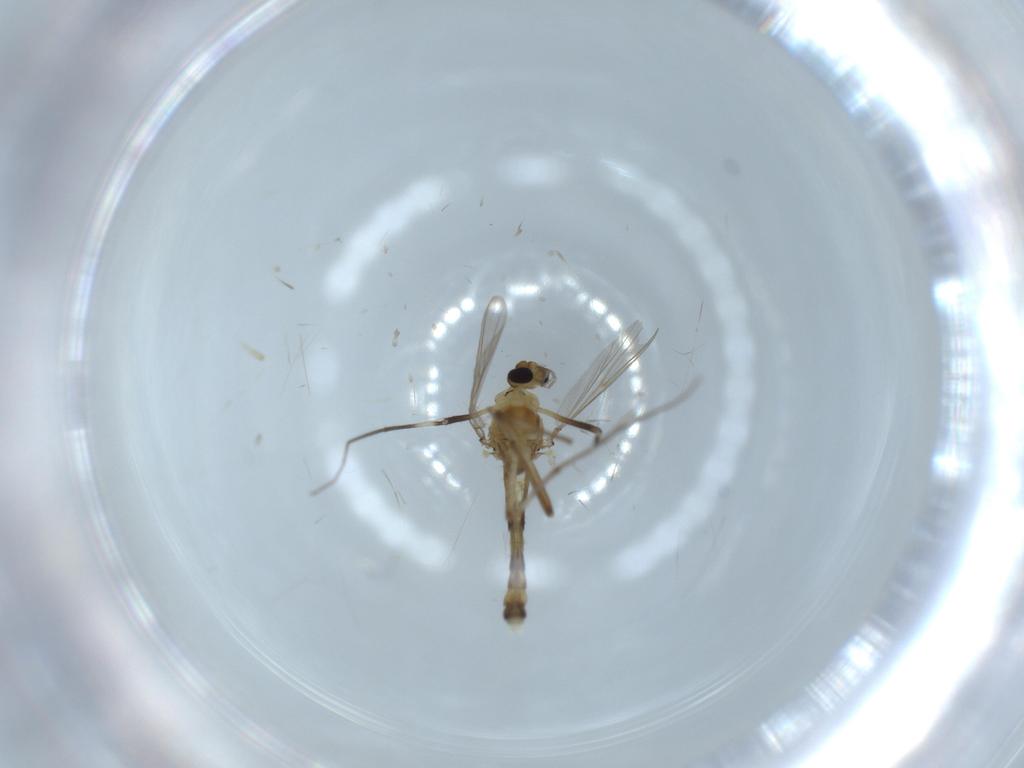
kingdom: Animalia
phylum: Arthropoda
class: Insecta
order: Diptera
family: Chironomidae
